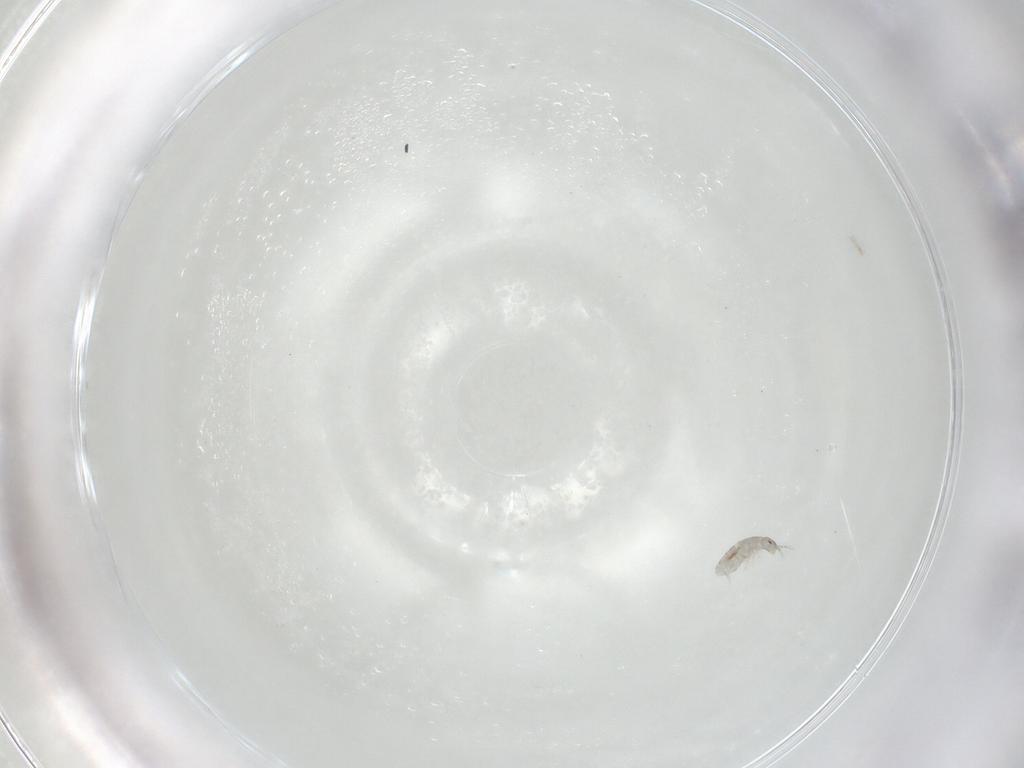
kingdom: Animalia
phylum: Arthropoda
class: Collembola
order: Entomobryomorpha
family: Isotomidae
